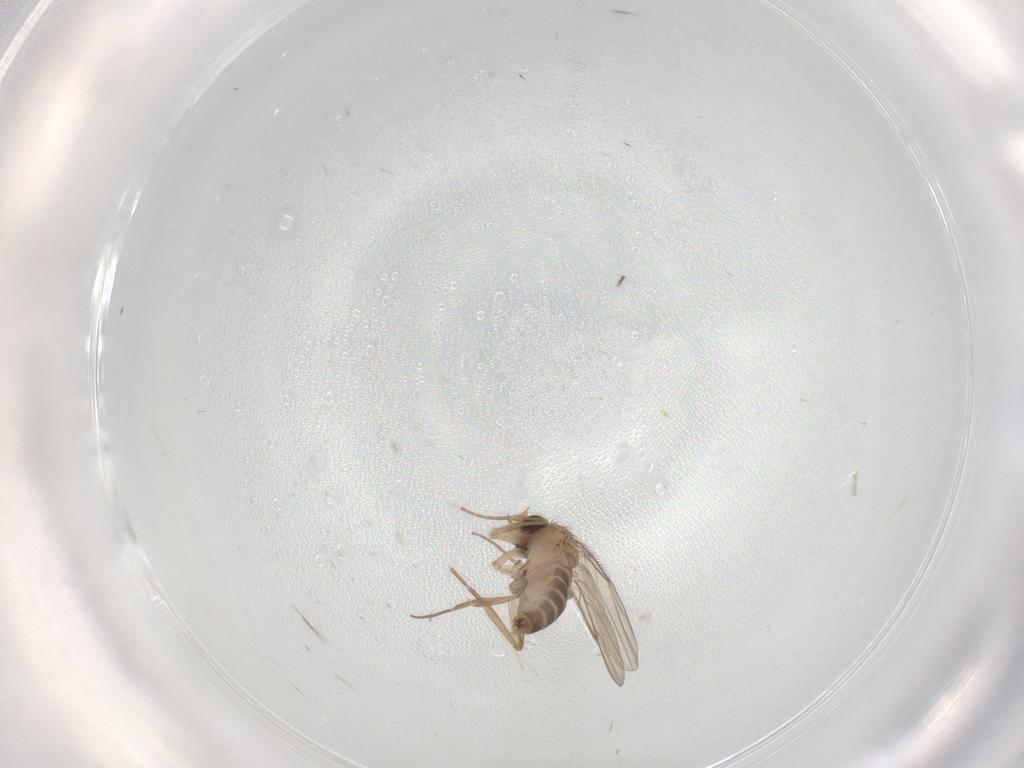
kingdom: Animalia
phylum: Arthropoda
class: Insecta
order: Diptera
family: Phoridae
